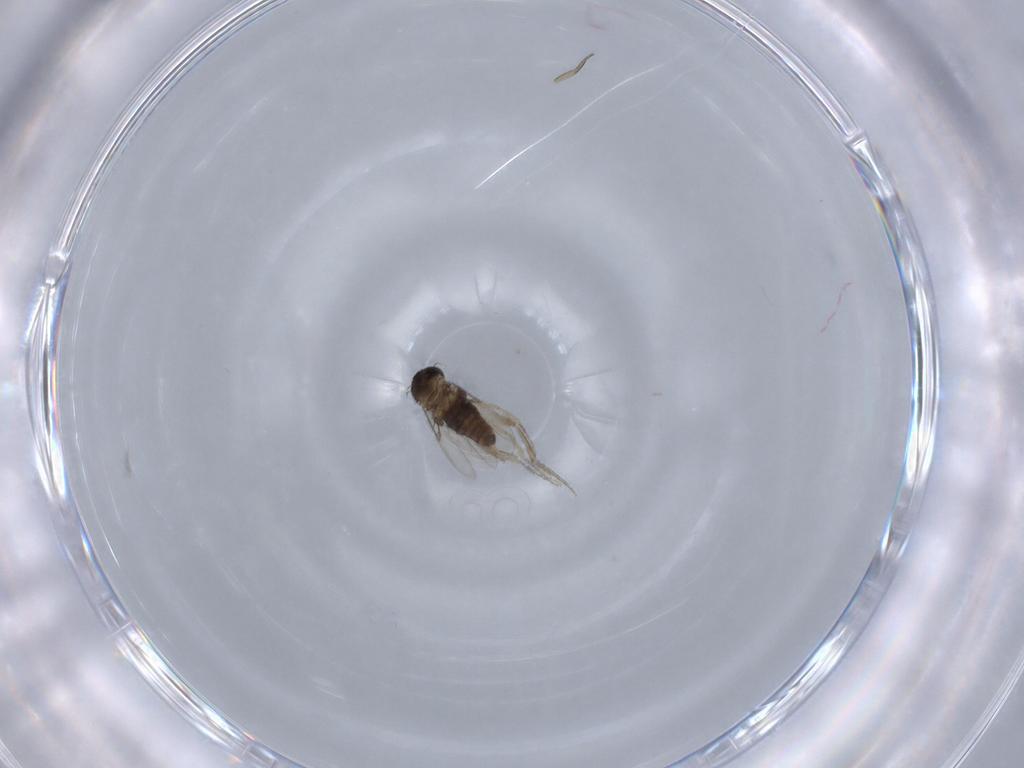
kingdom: Animalia
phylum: Arthropoda
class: Insecta
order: Diptera
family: Phoridae
